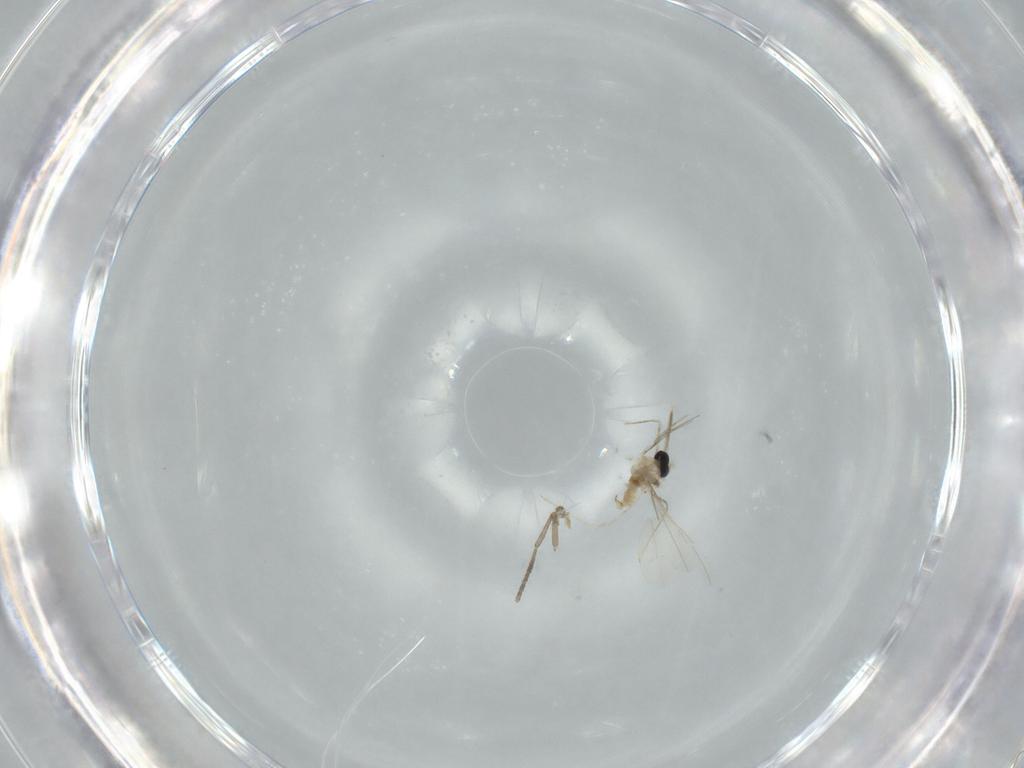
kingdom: Animalia
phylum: Arthropoda
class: Insecta
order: Diptera
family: Cecidomyiidae
